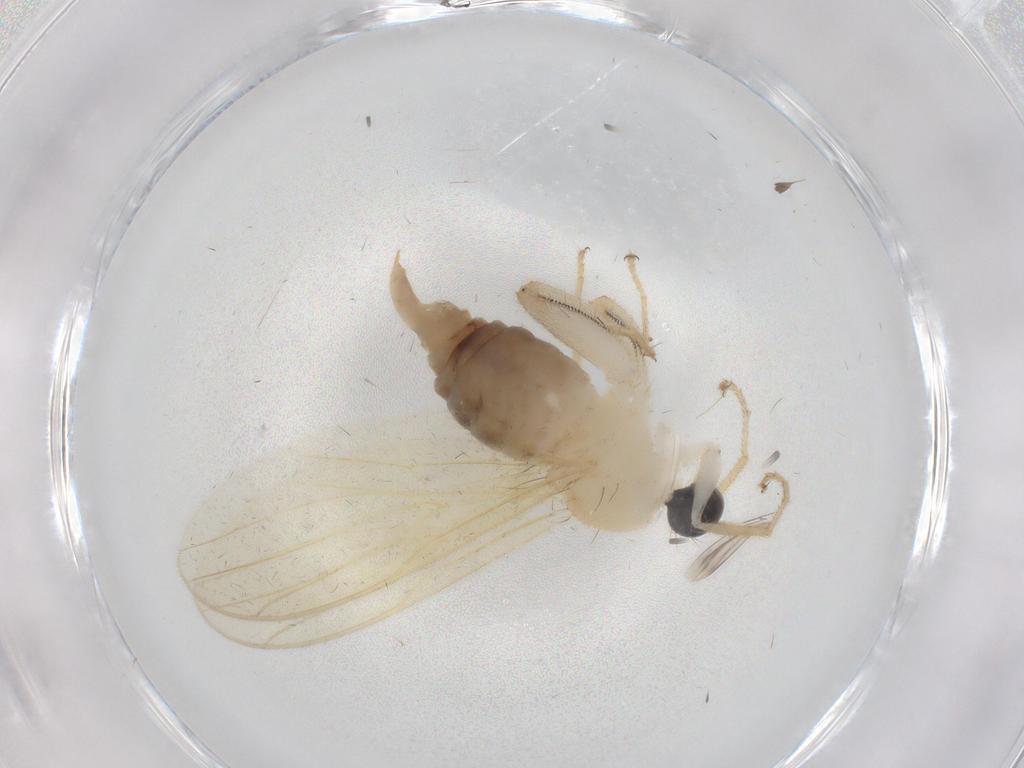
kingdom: Animalia
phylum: Arthropoda
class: Insecta
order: Diptera
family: Hybotidae
